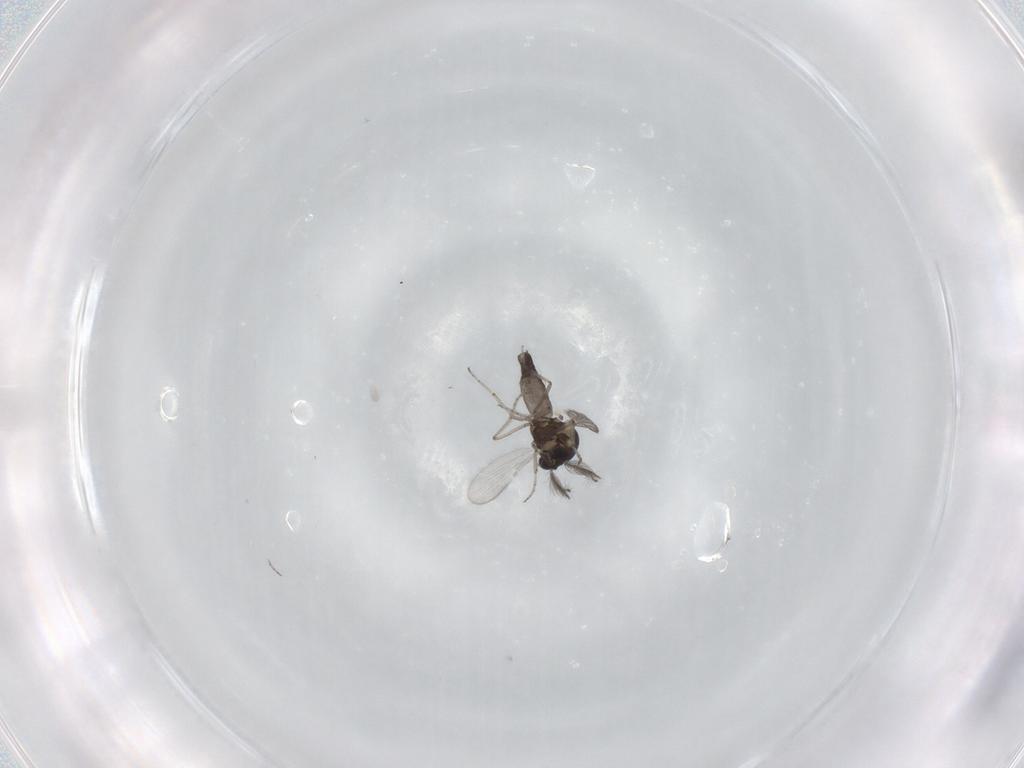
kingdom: Animalia
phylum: Arthropoda
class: Insecta
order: Diptera
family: Ceratopogonidae
